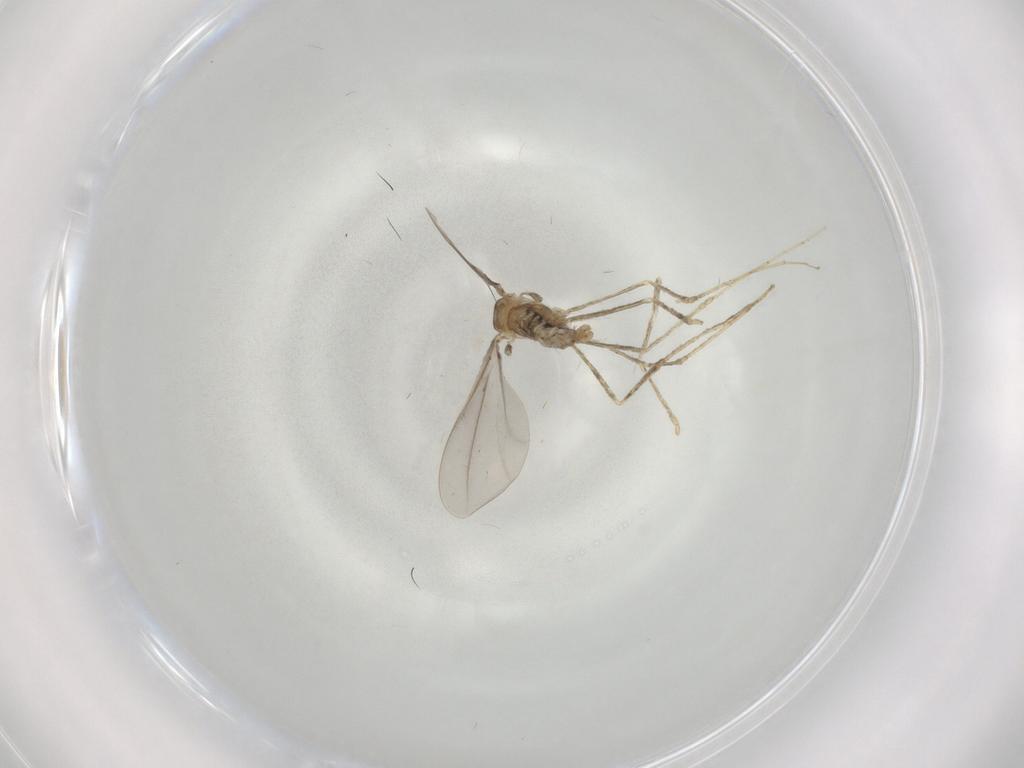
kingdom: Animalia
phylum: Arthropoda
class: Insecta
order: Diptera
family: Cecidomyiidae
